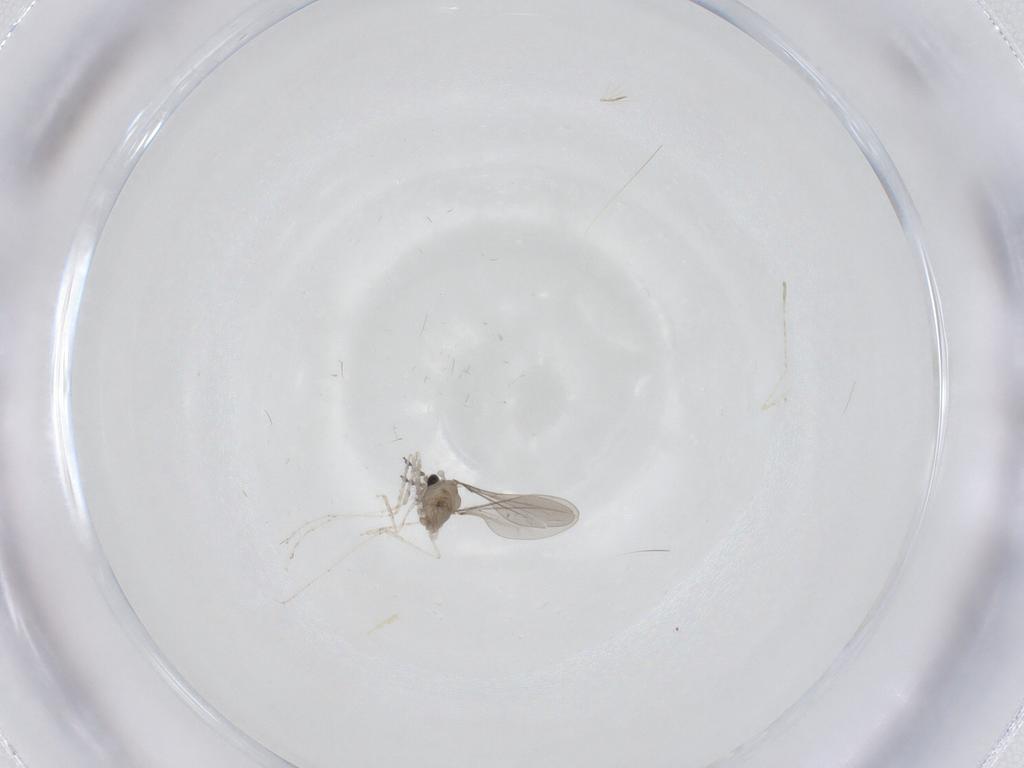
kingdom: Animalia
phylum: Arthropoda
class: Insecta
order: Diptera
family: Cecidomyiidae
